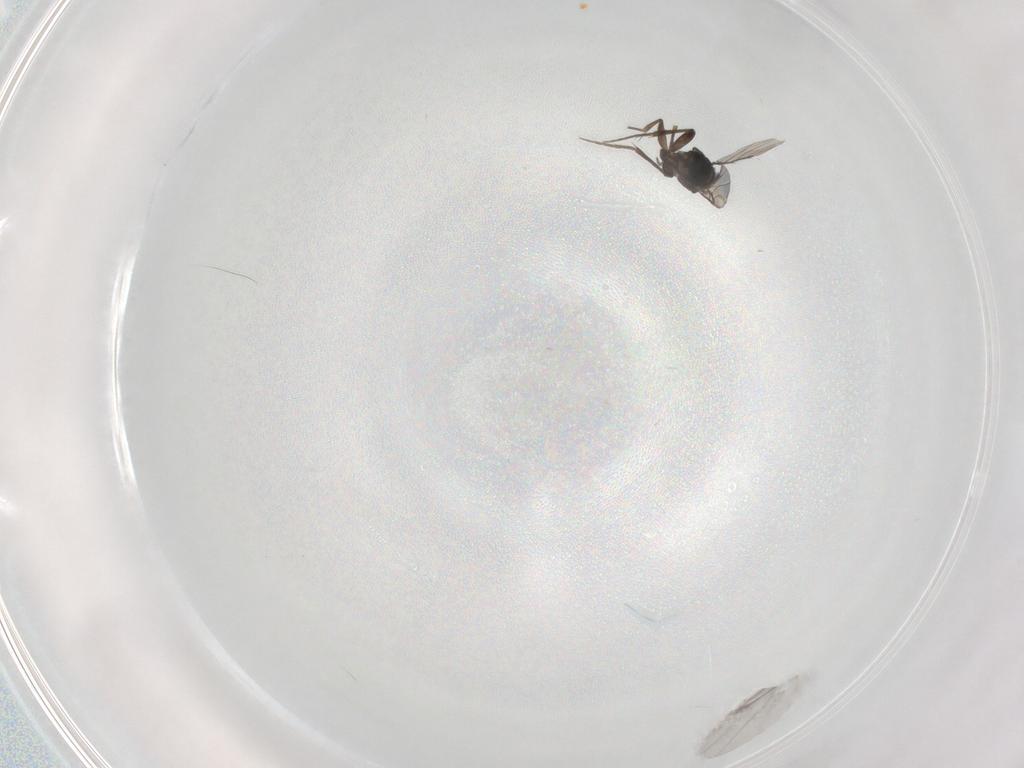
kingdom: Animalia
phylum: Arthropoda
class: Insecta
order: Diptera
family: Phoridae
